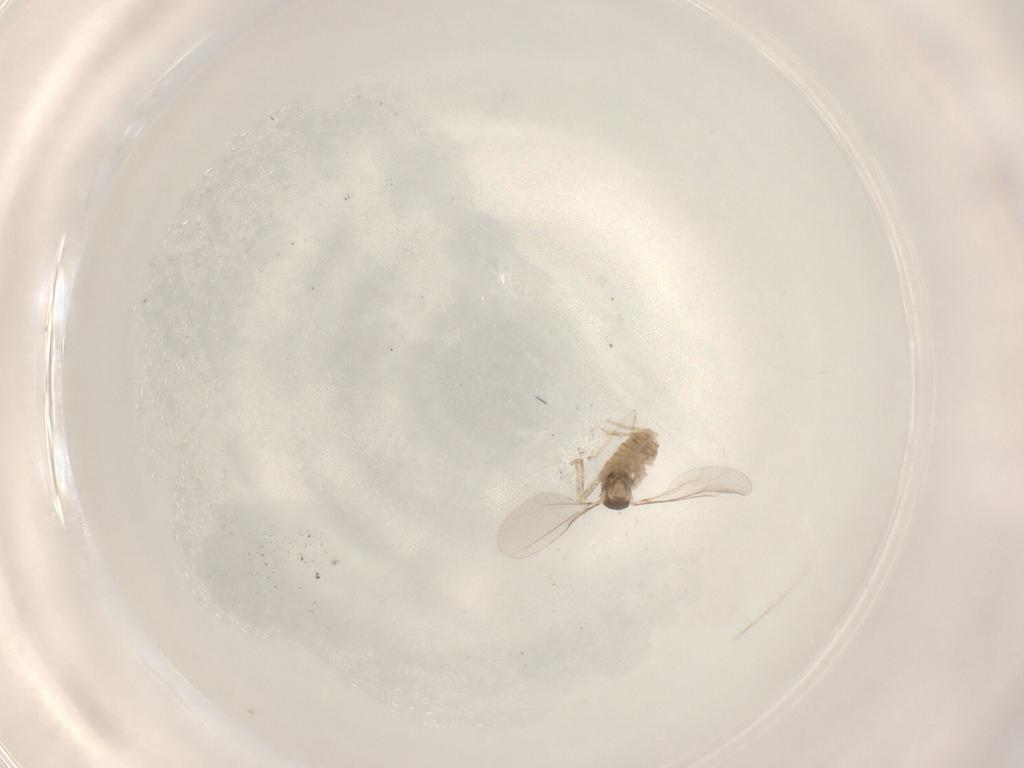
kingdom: Animalia
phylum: Arthropoda
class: Insecta
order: Diptera
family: Cecidomyiidae
